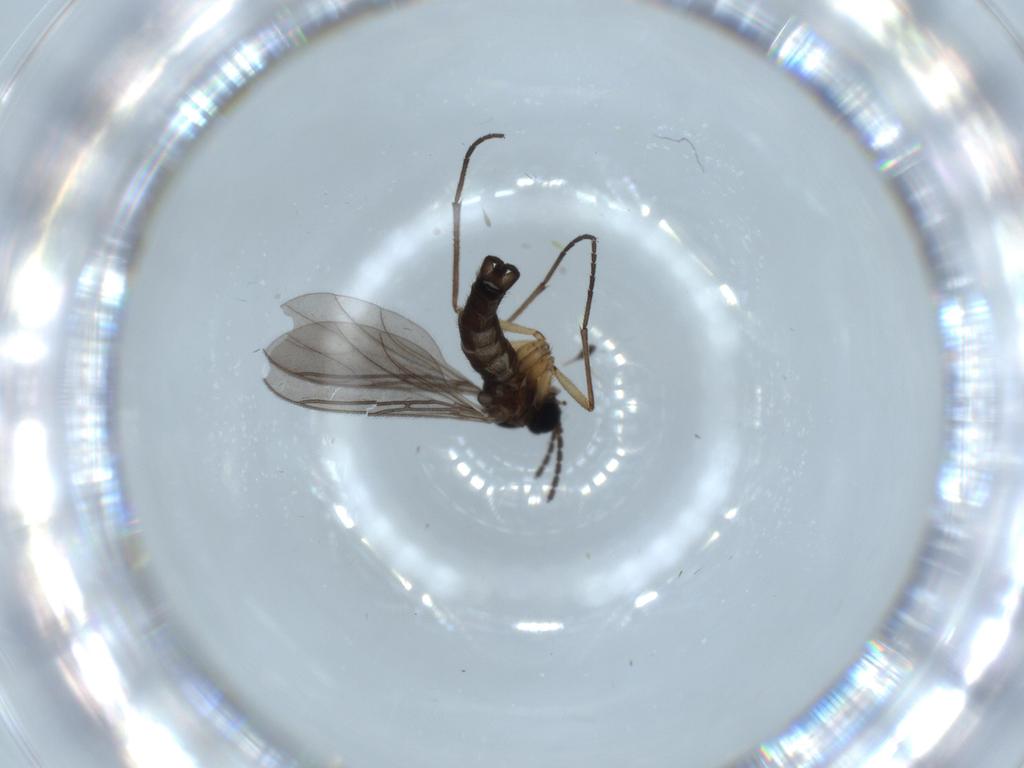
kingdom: Animalia
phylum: Arthropoda
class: Insecta
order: Diptera
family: Sciaridae
